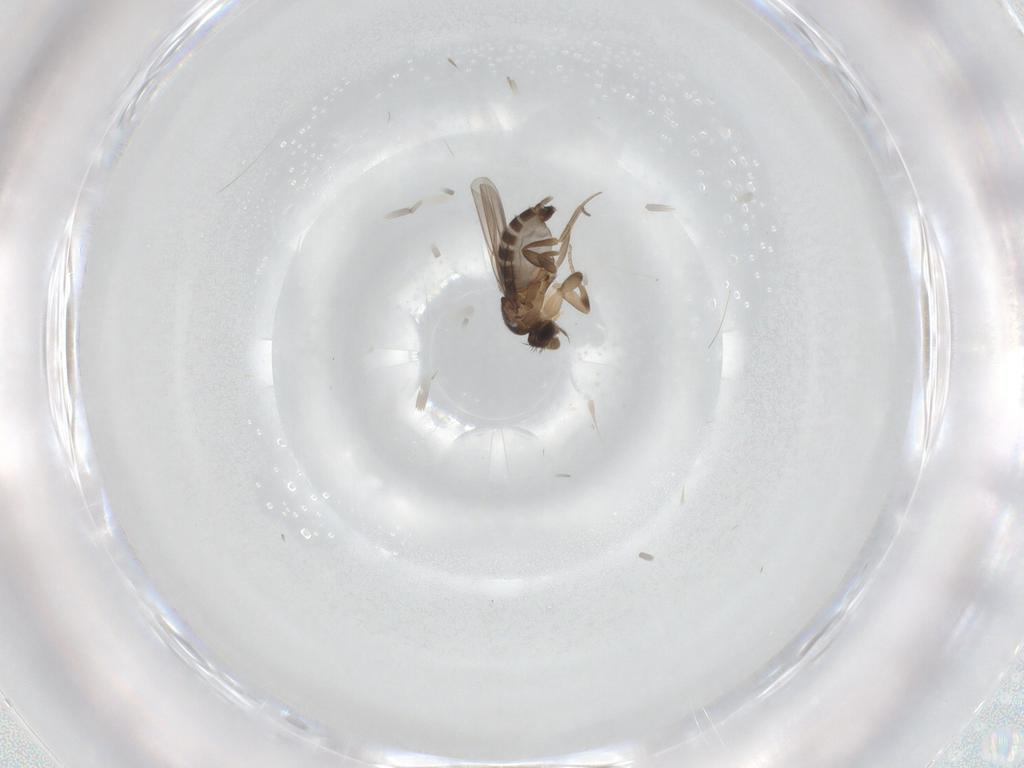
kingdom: Animalia
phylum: Arthropoda
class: Insecta
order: Diptera
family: Phoridae
